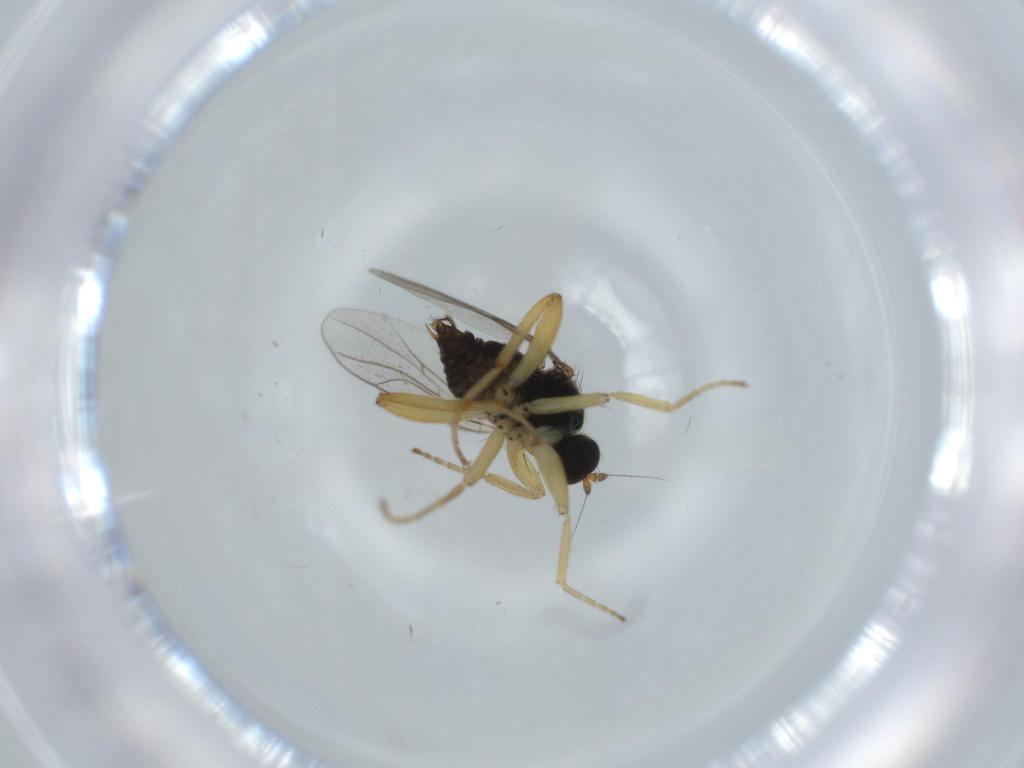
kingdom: Animalia
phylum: Arthropoda
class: Insecta
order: Diptera
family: Hybotidae
